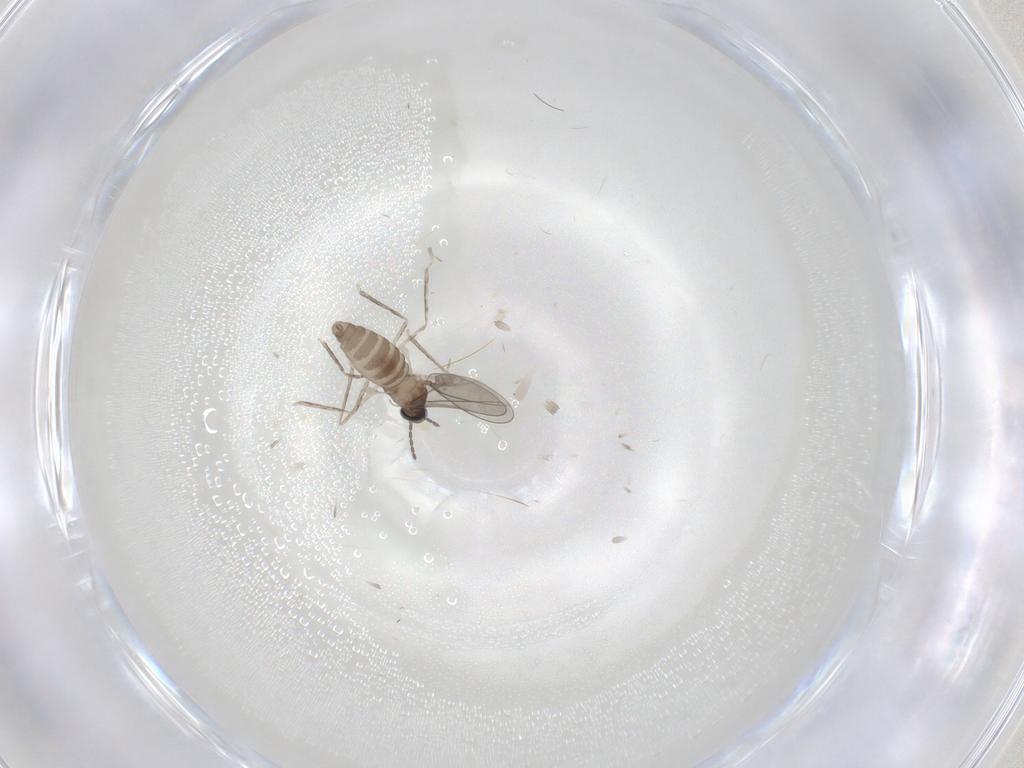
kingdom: Animalia
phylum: Arthropoda
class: Insecta
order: Diptera
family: Cecidomyiidae
